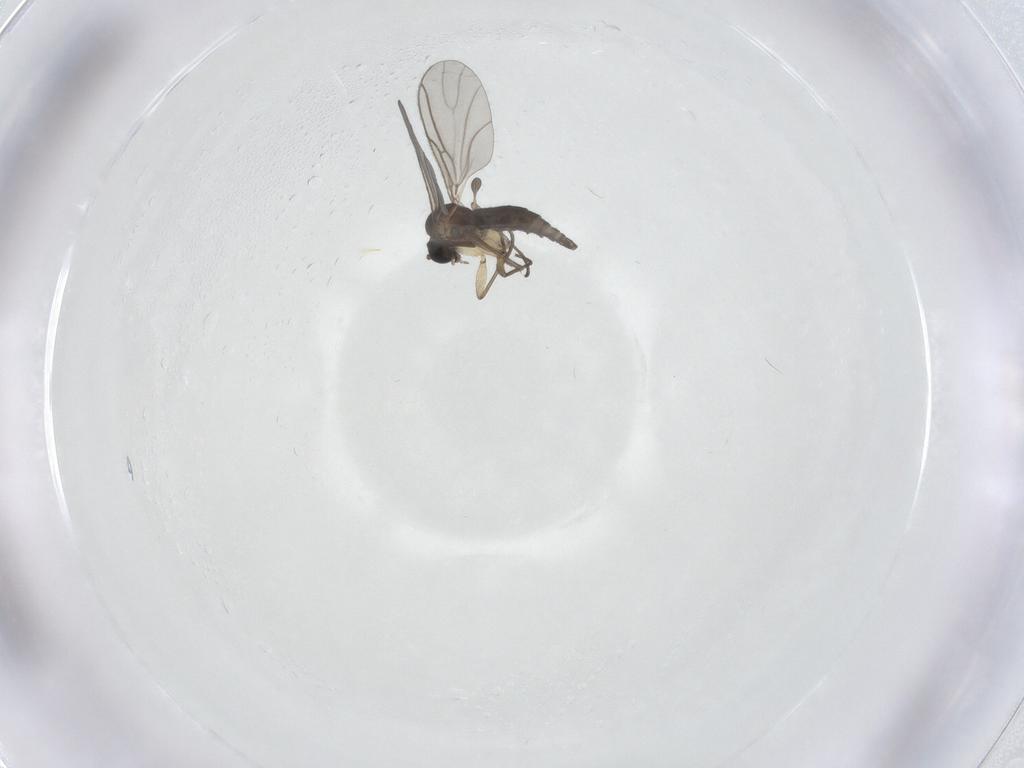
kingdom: Animalia
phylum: Arthropoda
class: Insecta
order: Diptera
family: Sciaridae
